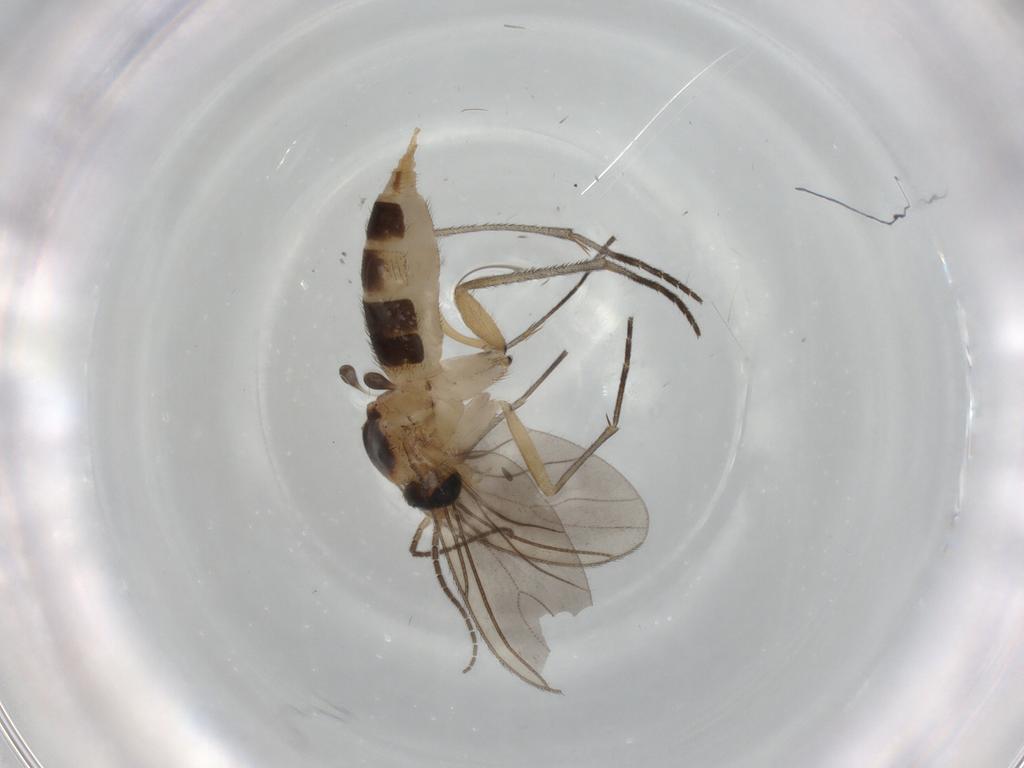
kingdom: Animalia
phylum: Arthropoda
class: Insecta
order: Diptera
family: Sciaridae
